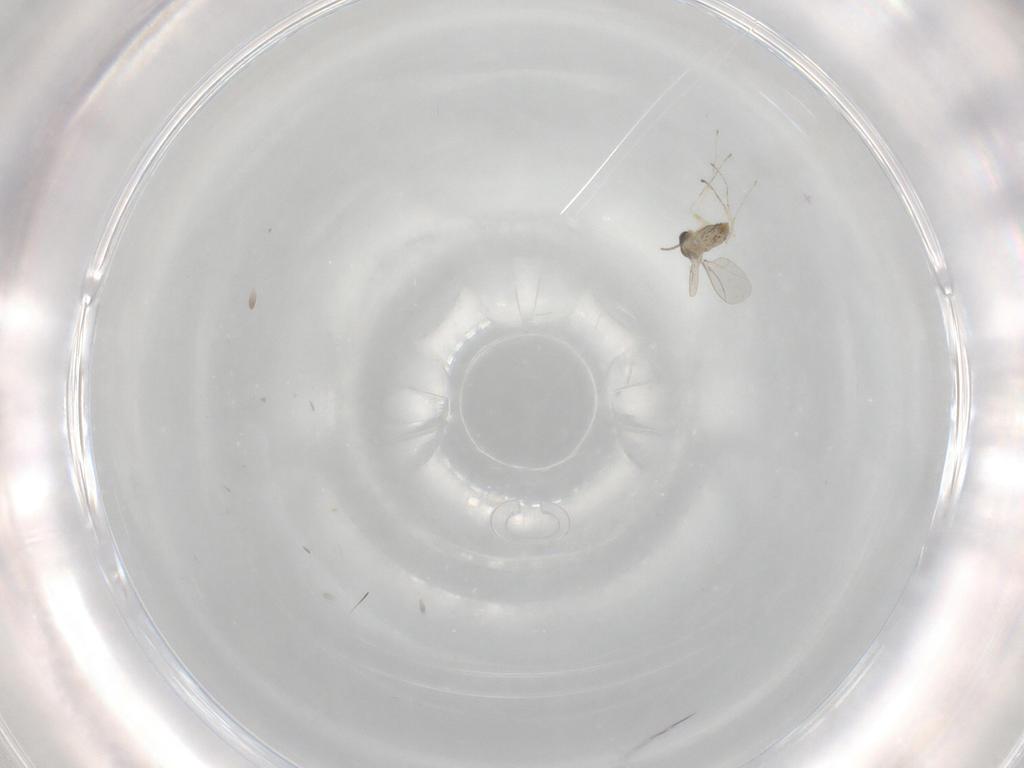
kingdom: Animalia
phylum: Arthropoda
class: Insecta
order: Diptera
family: Cecidomyiidae
